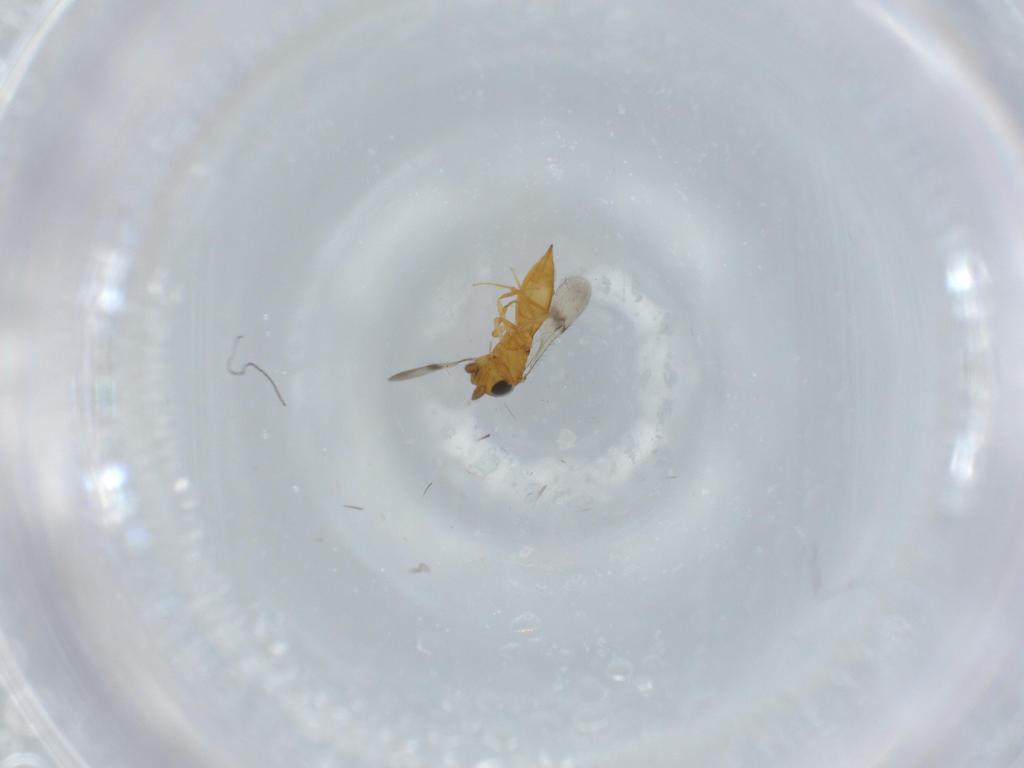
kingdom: Animalia
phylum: Arthropoda
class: Insecta
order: Hymenoptera
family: Scelionidae
